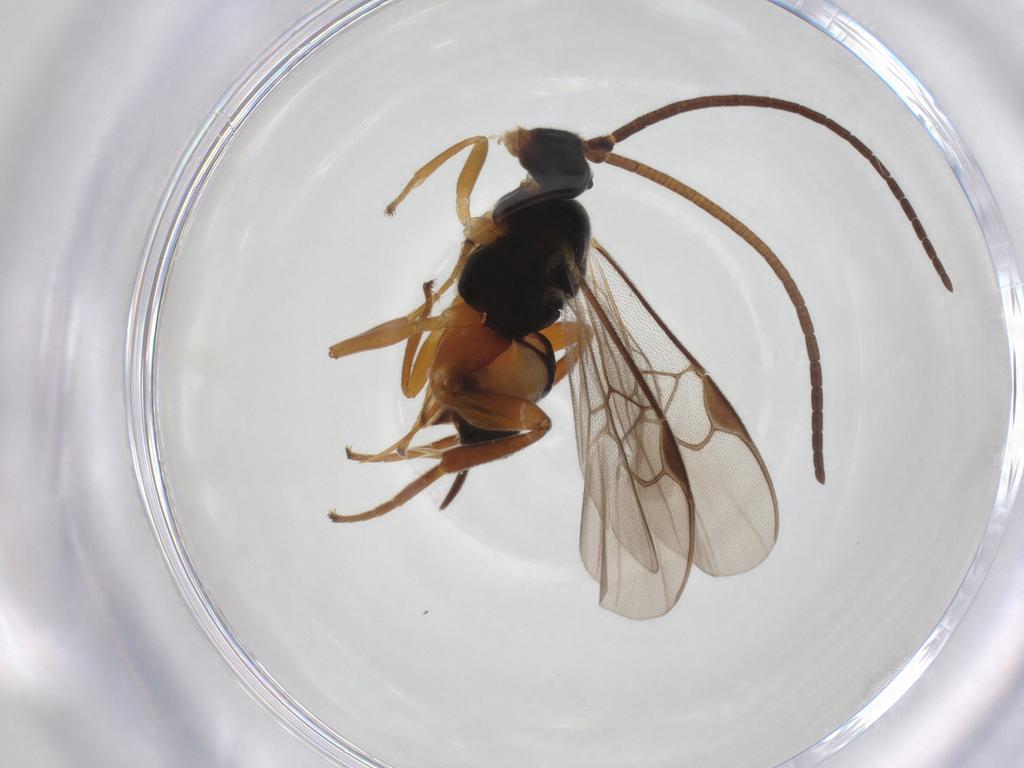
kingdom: Animalia
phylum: Arthropoda
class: Insecta
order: Hymenoptera
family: Braconidae
